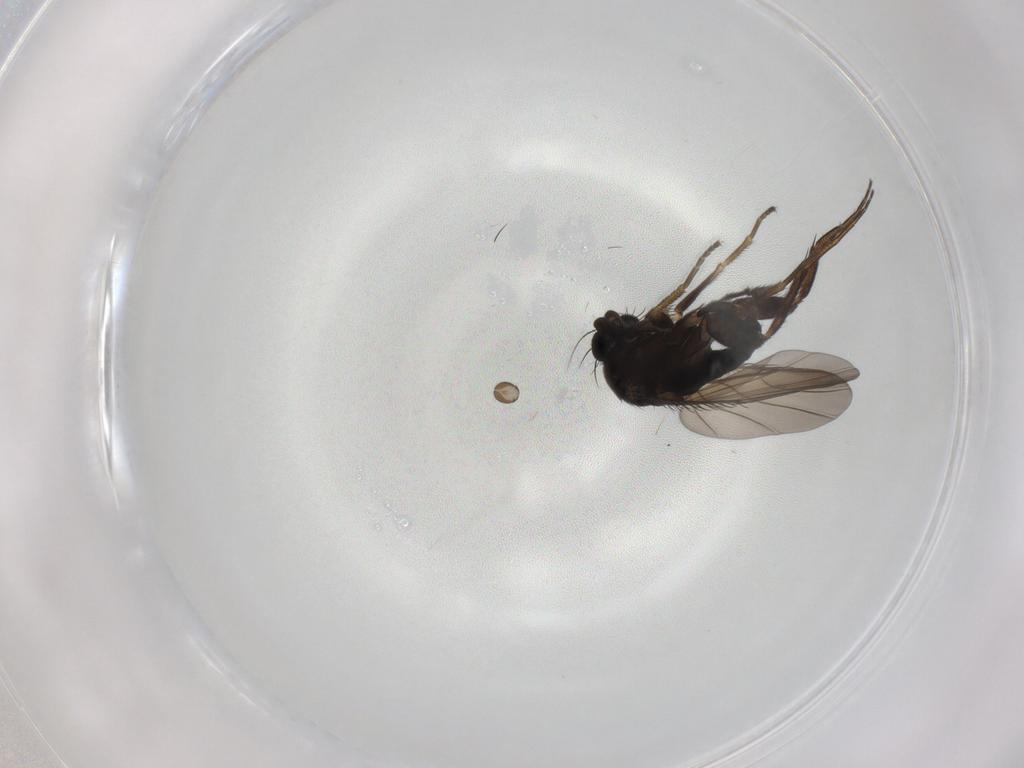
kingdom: Animalia
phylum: Arthropoda
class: Insecta
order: Diptera
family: Phoridae
